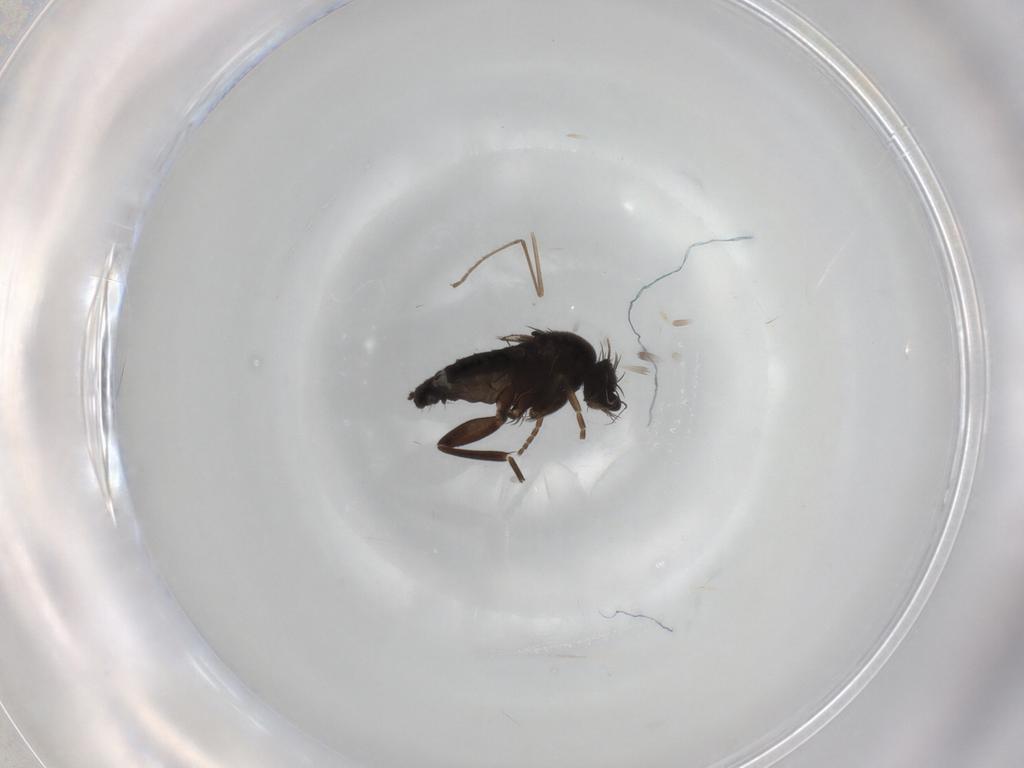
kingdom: Animalia
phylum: Arthropoda
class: Insecta
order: Diptera
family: Phoridae
